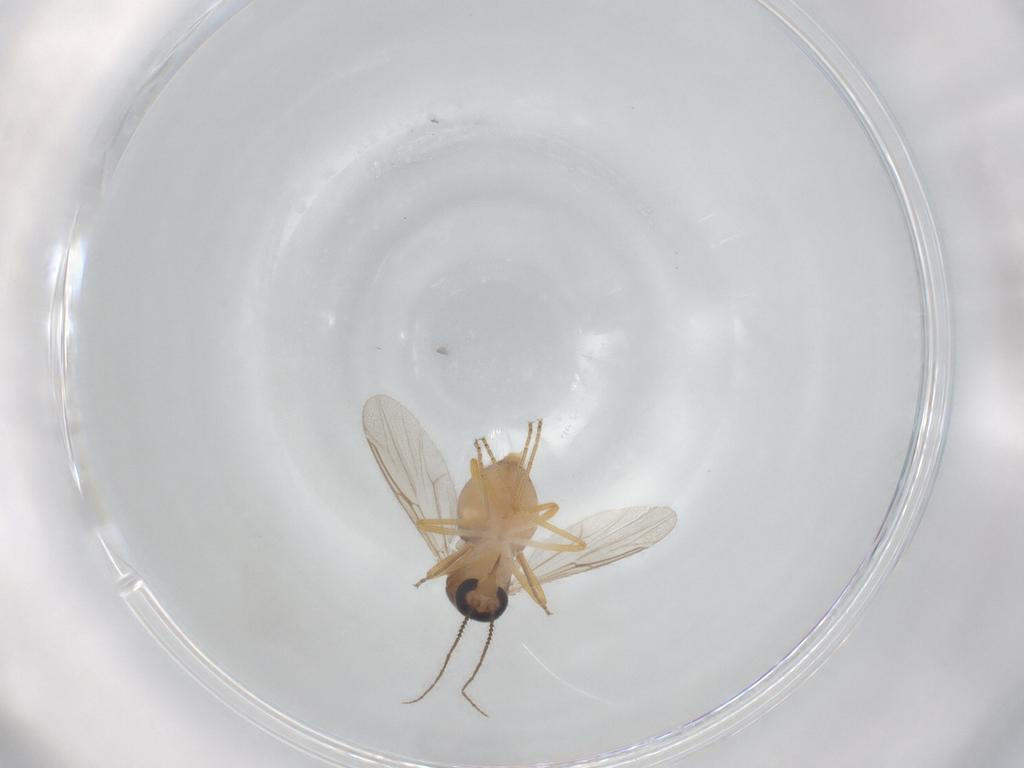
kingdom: Animalia
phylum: Arthropoda
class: Insecta
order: Diptera
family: Ceratopogonidae
